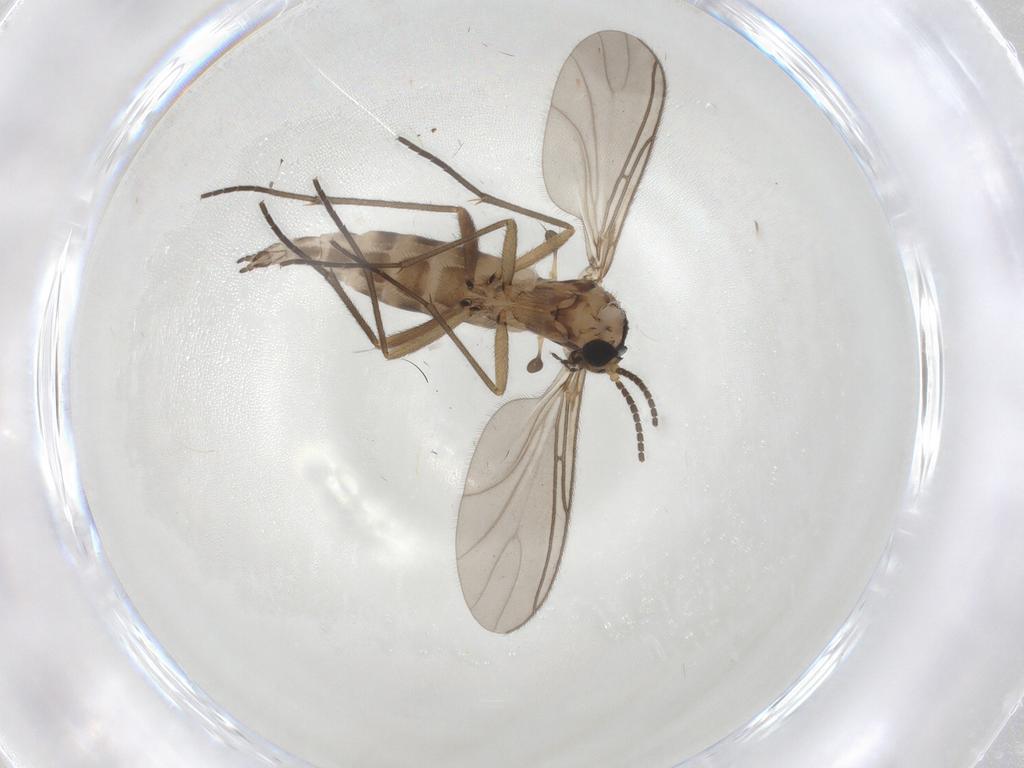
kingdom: Animalia
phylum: Arthropoda
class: Insecta
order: Diptera
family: Sciaridae
